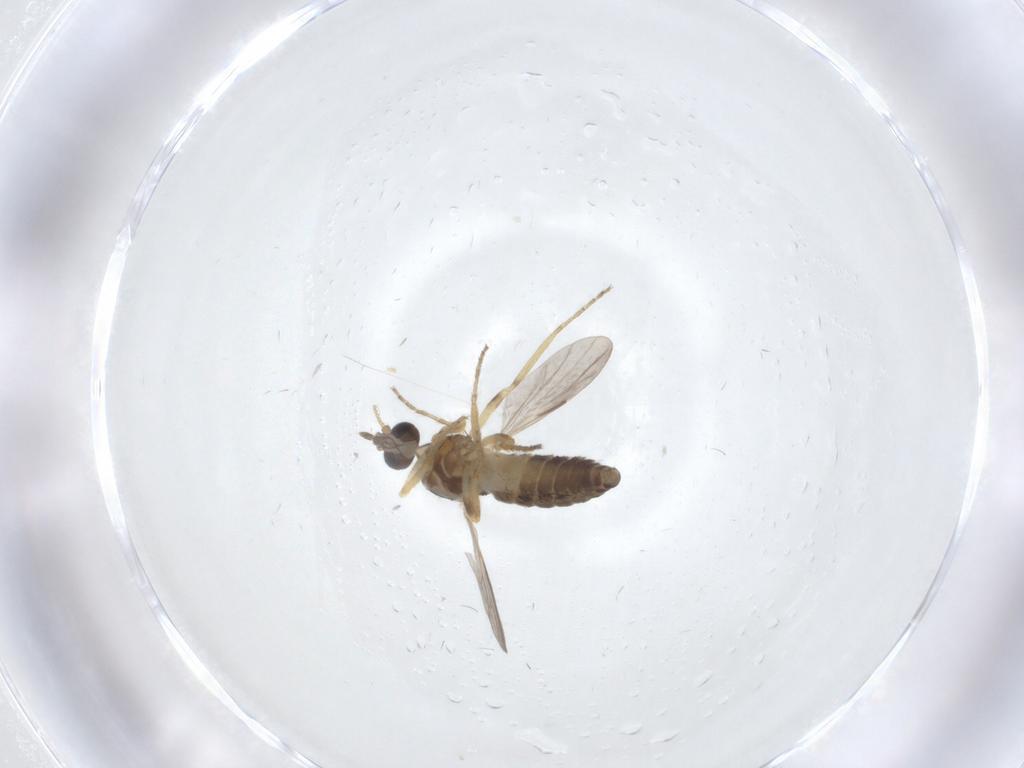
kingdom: Animalia
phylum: Arthropoda
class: Insecta
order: Diptera
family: Ceratopogonidae
